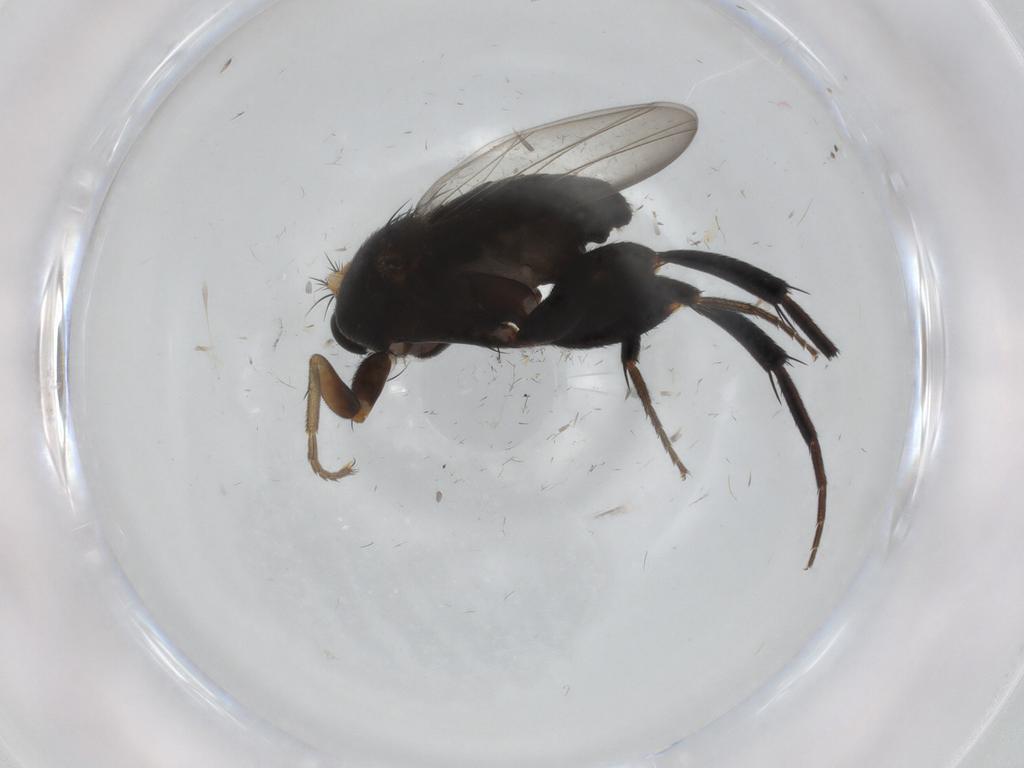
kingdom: Animalia
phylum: Arthropoda
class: Insecta
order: Diptera
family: Phoridae
